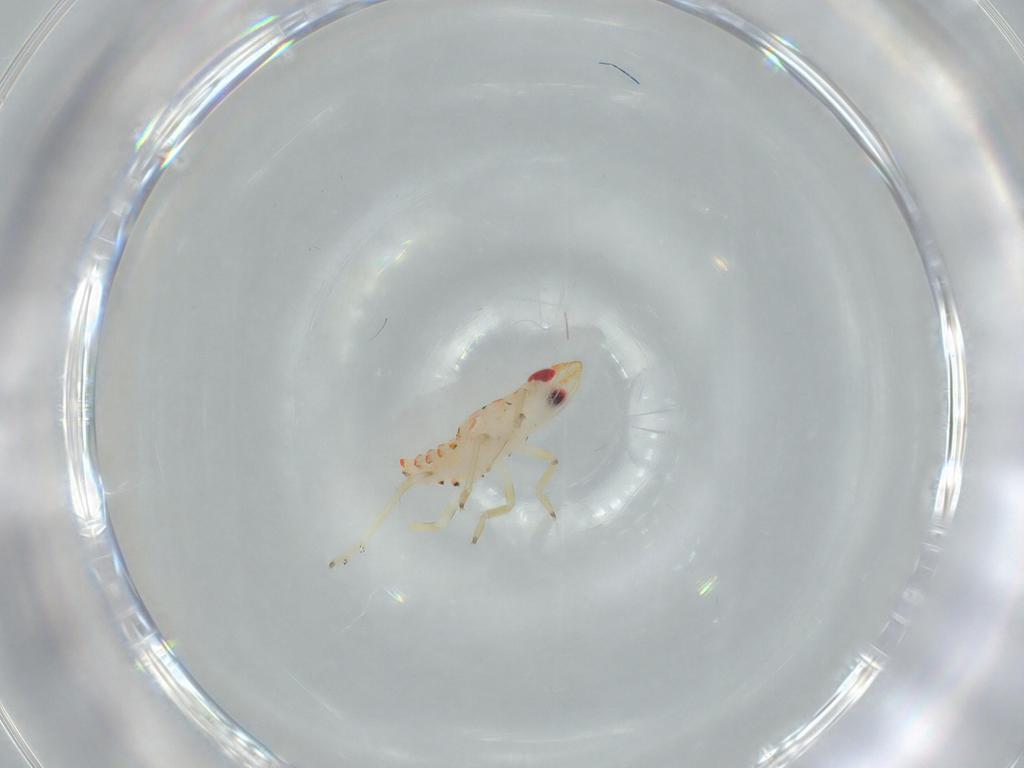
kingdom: Animalia
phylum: Arthropoda
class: Insecta
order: Hemiptera
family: Tropiduchidae
